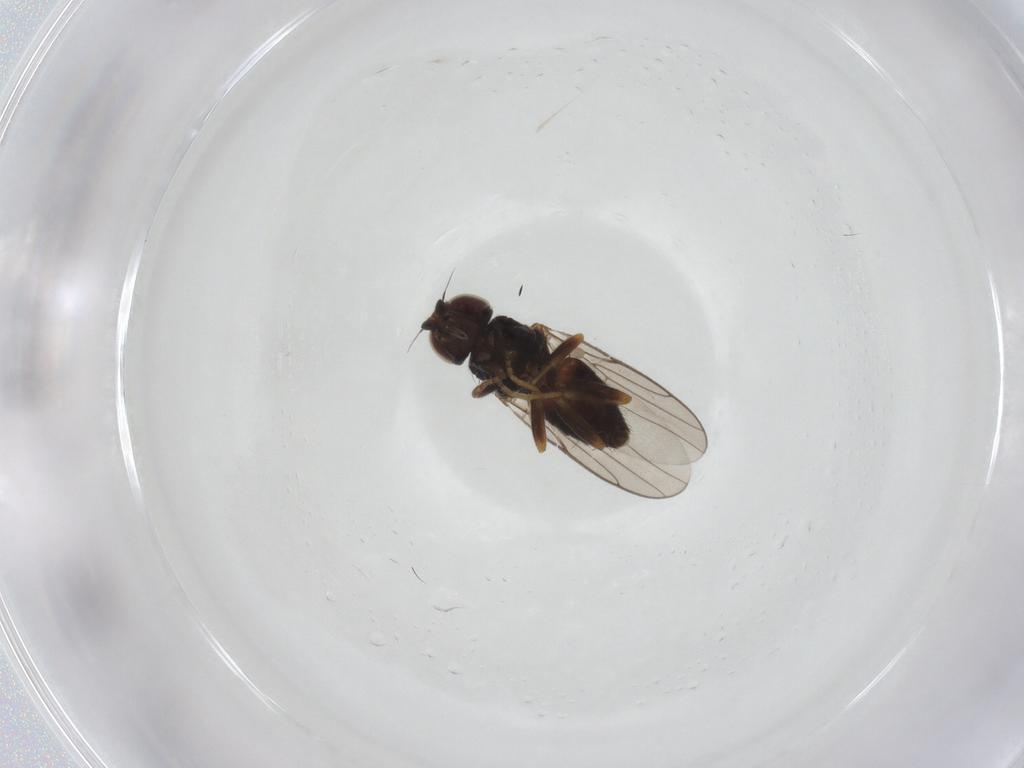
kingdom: Animalia
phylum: Arthropoda
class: Insecta
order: Diptera
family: Chloropidae
